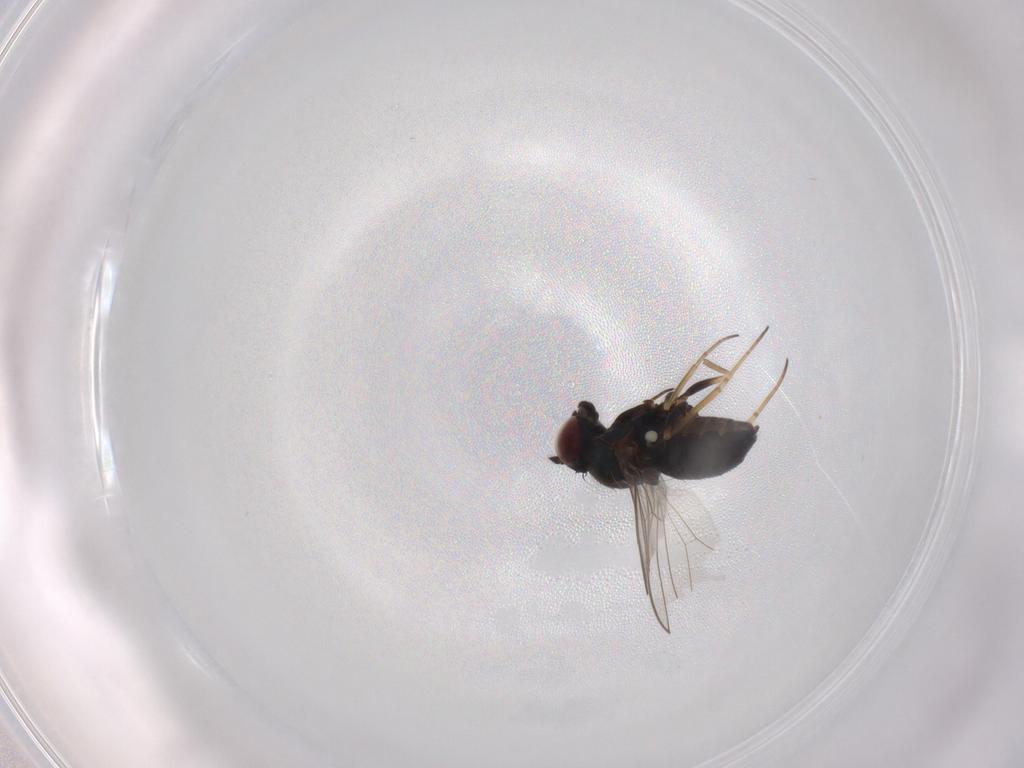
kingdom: Animalia
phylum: Arthropoda
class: Insecta
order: Diptera
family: Dolichopodidae
